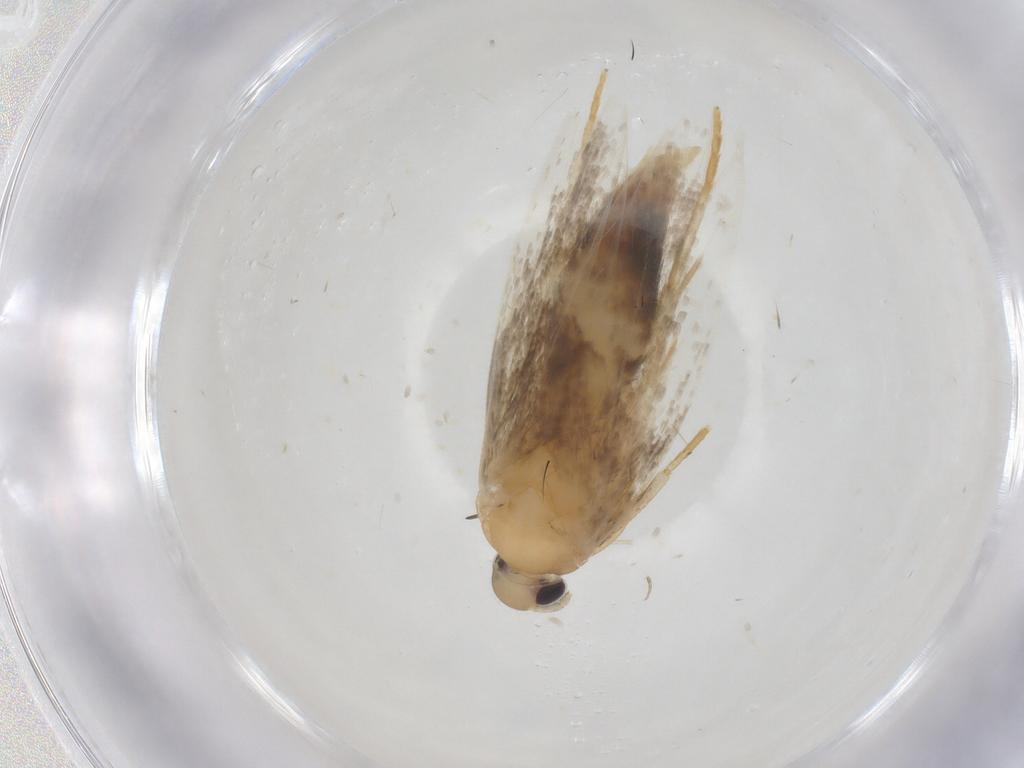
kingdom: Animalia
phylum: Arthropoda
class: Insecta
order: Lepidoptera
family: Autostichidae
